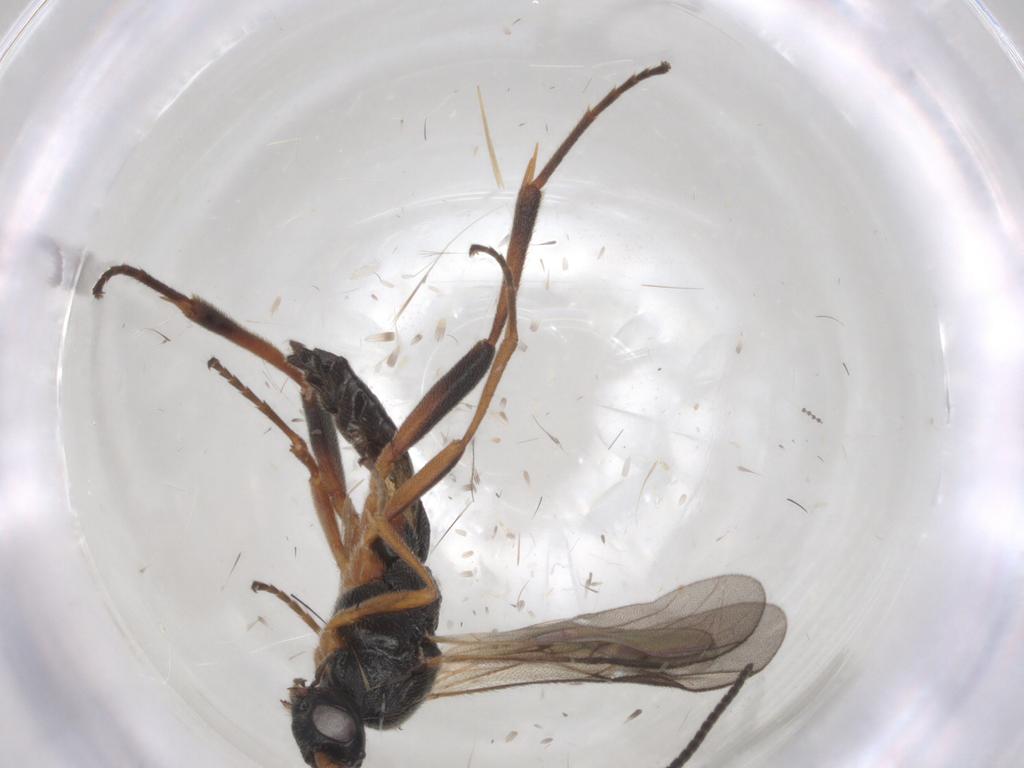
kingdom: Animalia
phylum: Arthropoda
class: Insecta
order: Hymenoptera
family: Braconidae
